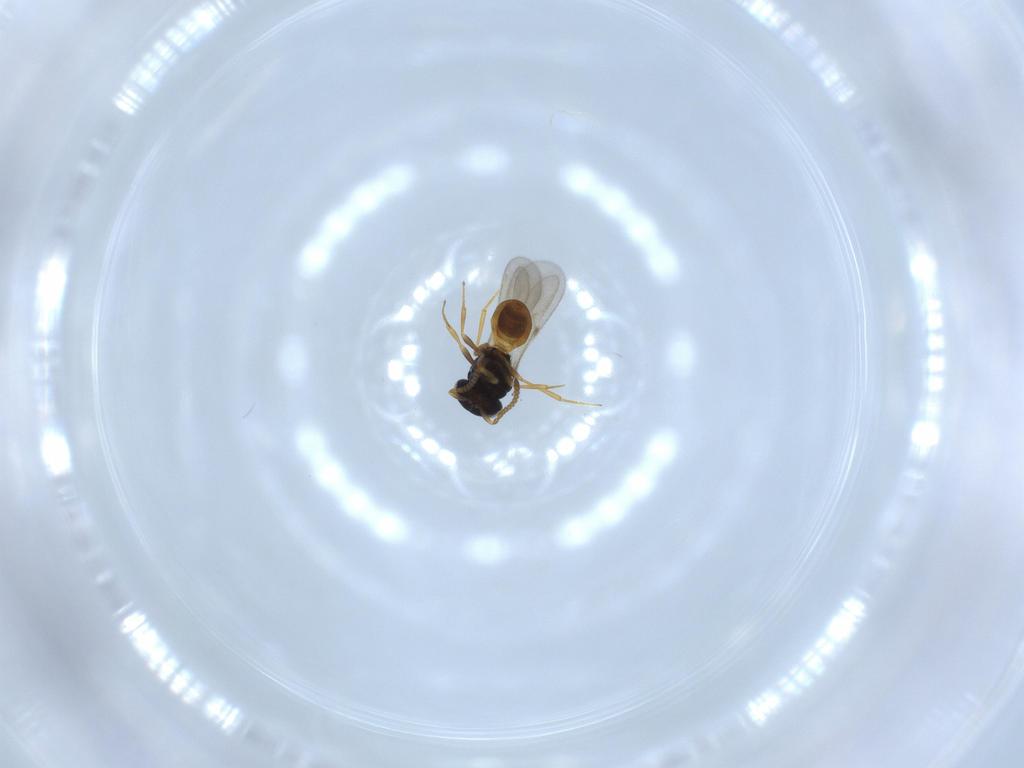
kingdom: Animalia
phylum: Arthropoda
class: Insecta
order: Hymenoptera
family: Scelionidae
